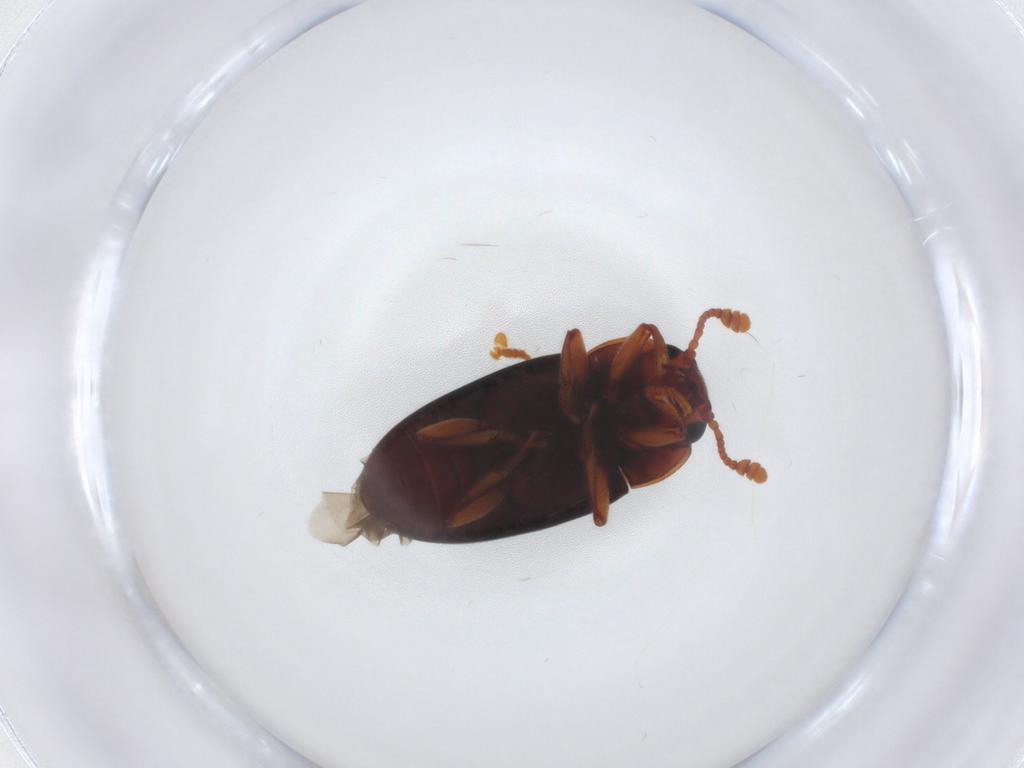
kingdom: Animalia
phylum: Arthropoda
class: Insecta
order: Coleoptera
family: Erotylidae
